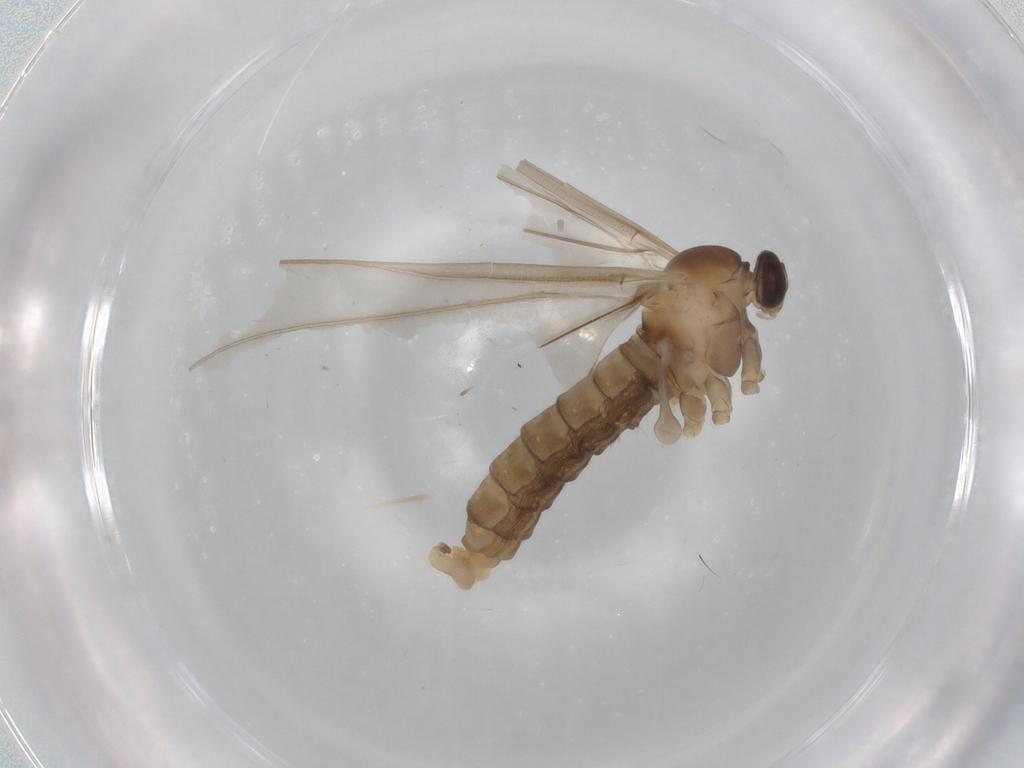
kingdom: Animalia
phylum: Arthropoda
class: Insecta
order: Diptera
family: Cecidomyiidae
